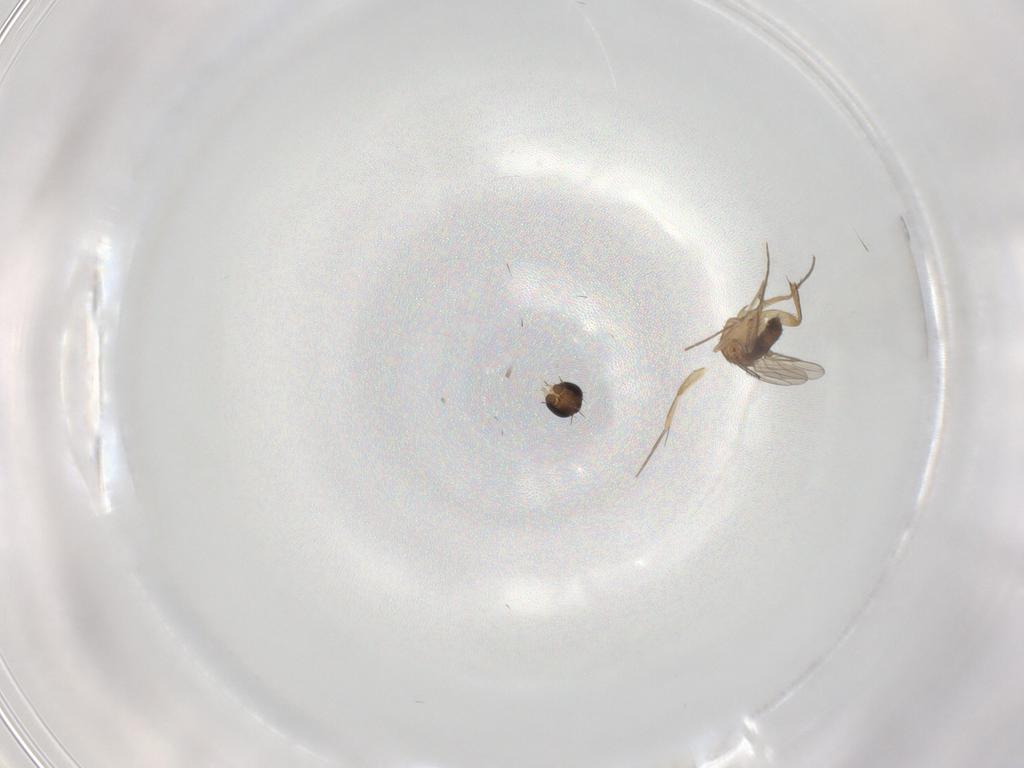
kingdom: Animalia
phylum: Arthropoda
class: Insecta
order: Diptera
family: Phoridae
